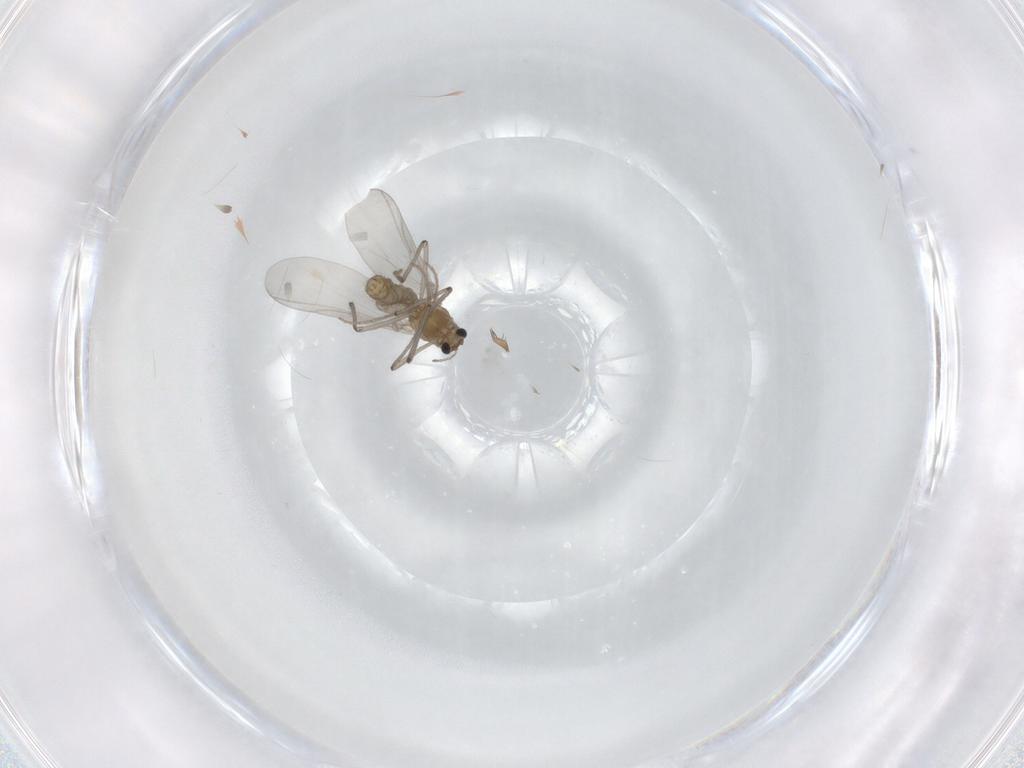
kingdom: Animalia
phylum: Arthropoda
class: Insecta
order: Diptera
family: Chironomidae
